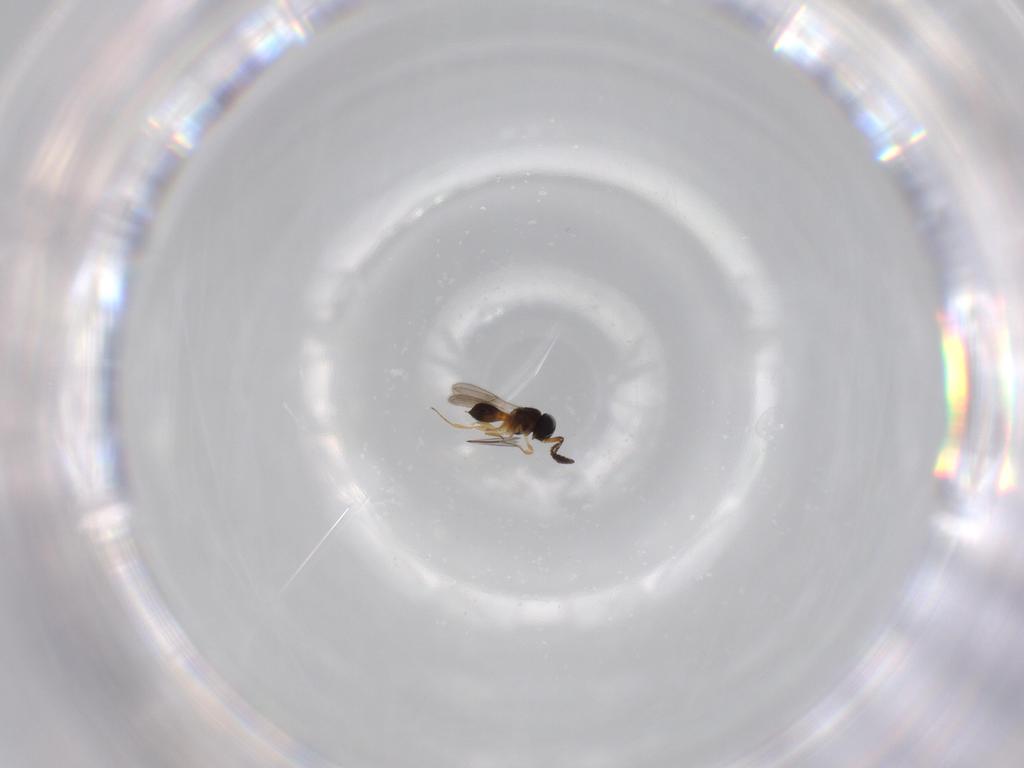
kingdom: Animalia
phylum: Arthropoda
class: Insecta
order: Hymenoptera
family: Scelionidae
